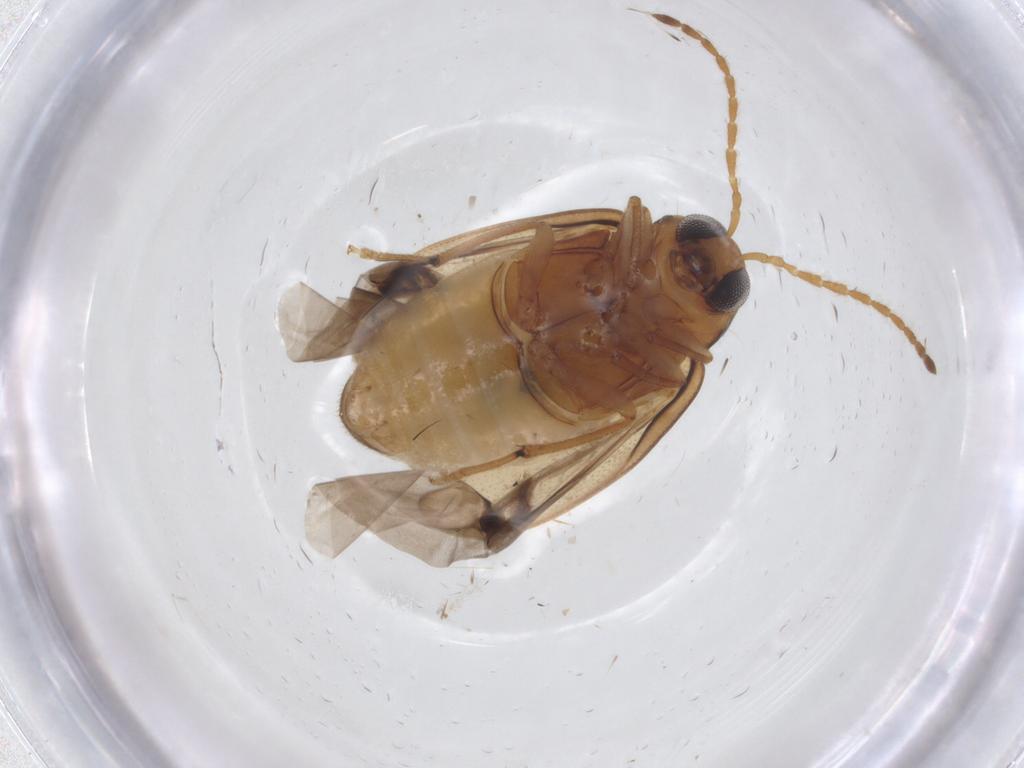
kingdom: Animalia
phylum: Arthropoda
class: Insecta
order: Coleoptera
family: Chrysomelidae
